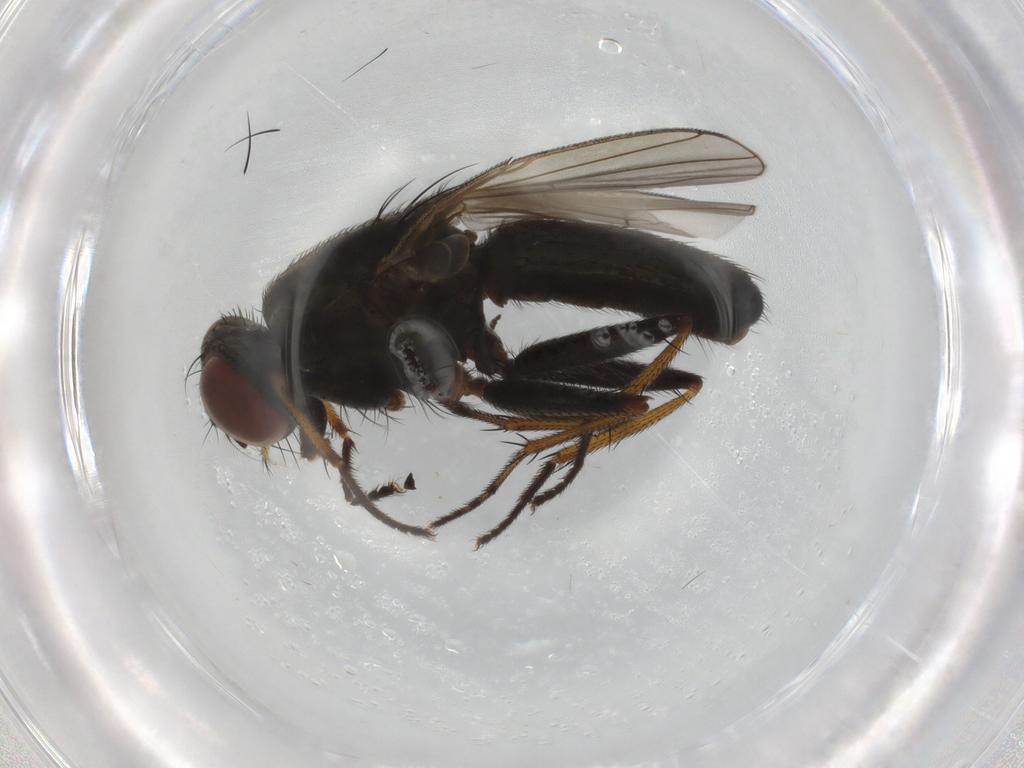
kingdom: Animalia
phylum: Arthropoda
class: Insecta
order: Diptera
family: Muscidae
